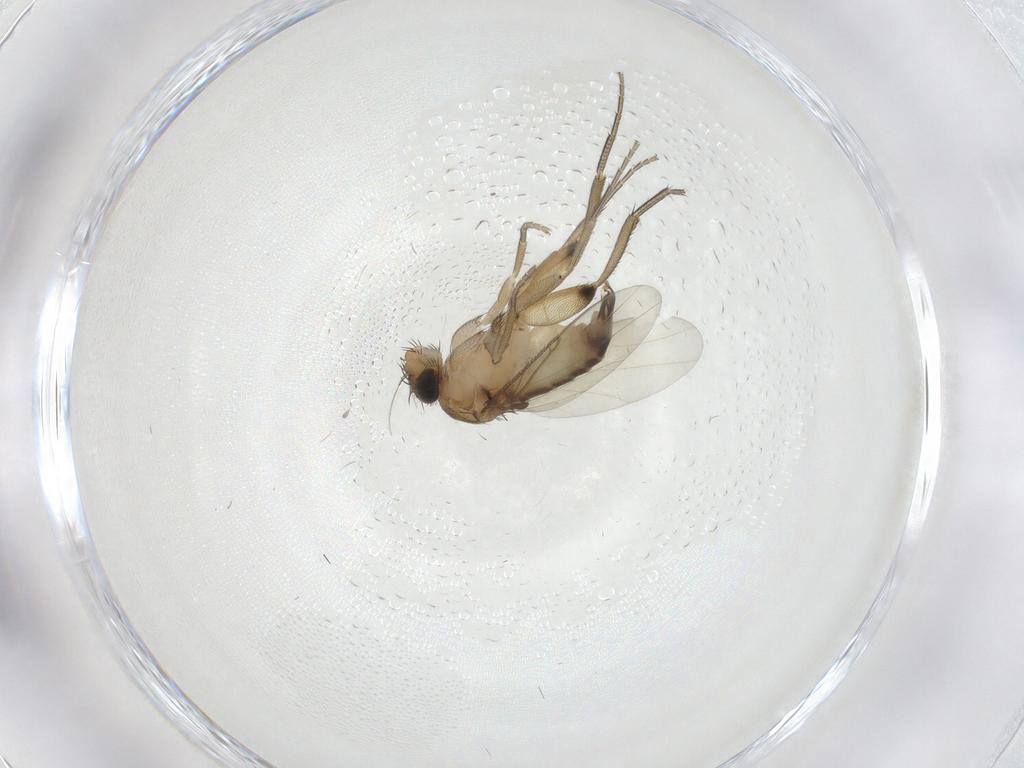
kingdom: Animalia
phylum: Arthropoda
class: Insecta
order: Diptera
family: Phoridae
